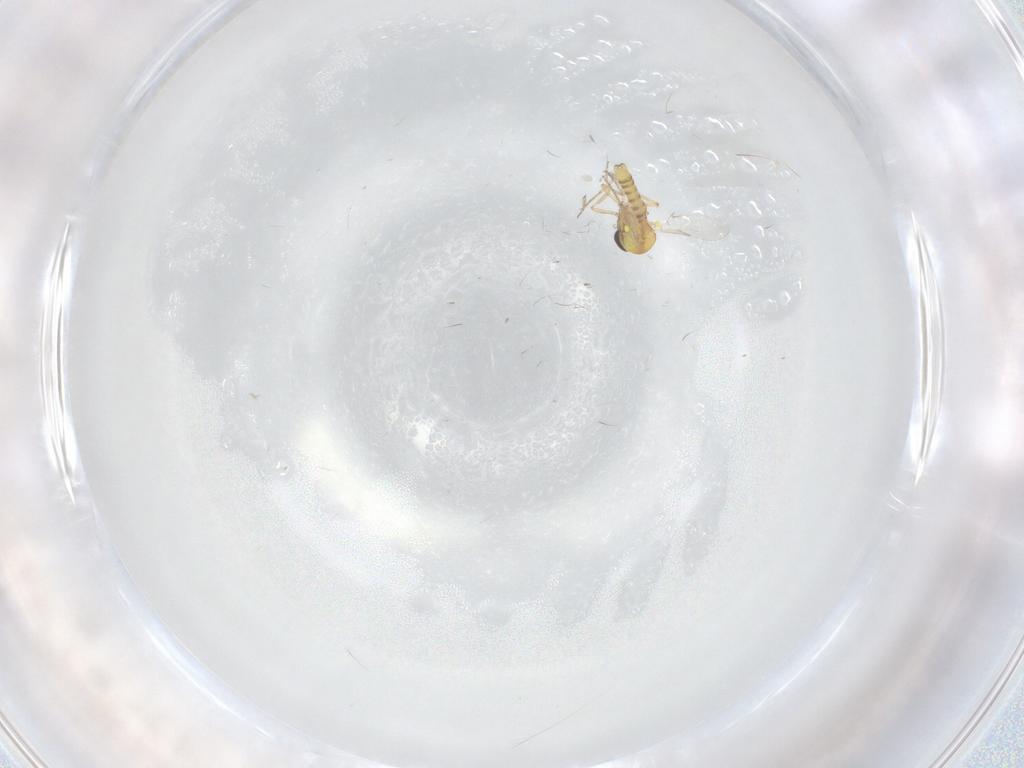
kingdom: Animalia
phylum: Arthropoda
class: Insecta
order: Diptera
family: Ceratopogonidae
